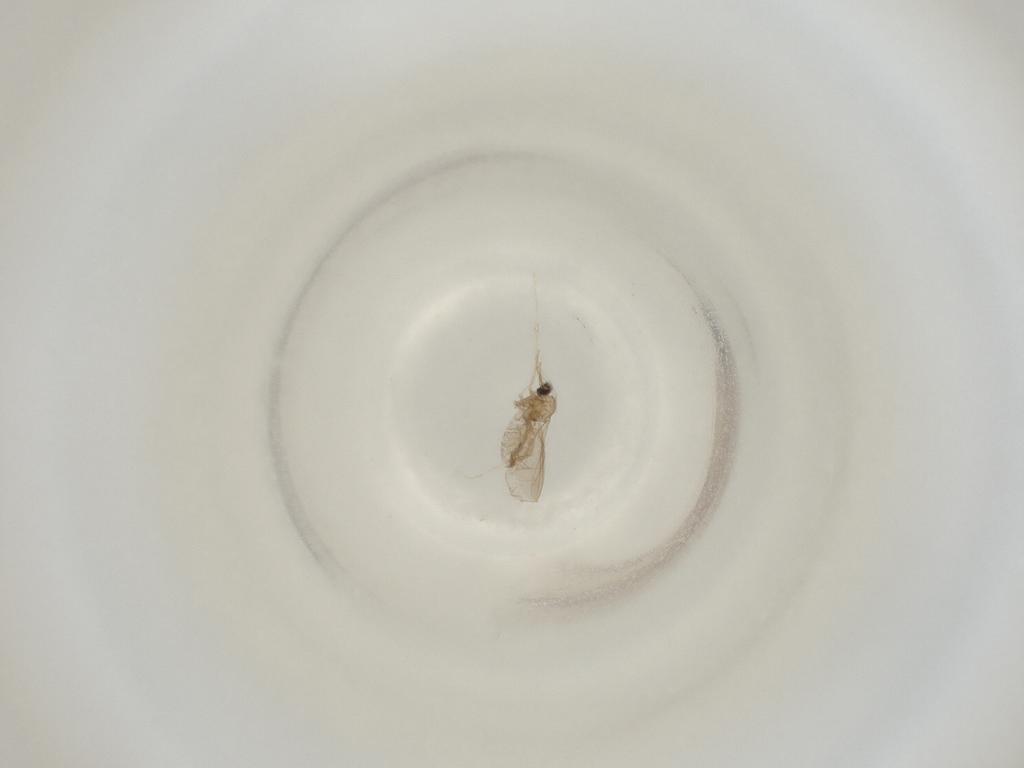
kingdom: Animalia
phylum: Arthropoda
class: Insecta
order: Diptera
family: Cecidomyiidae
